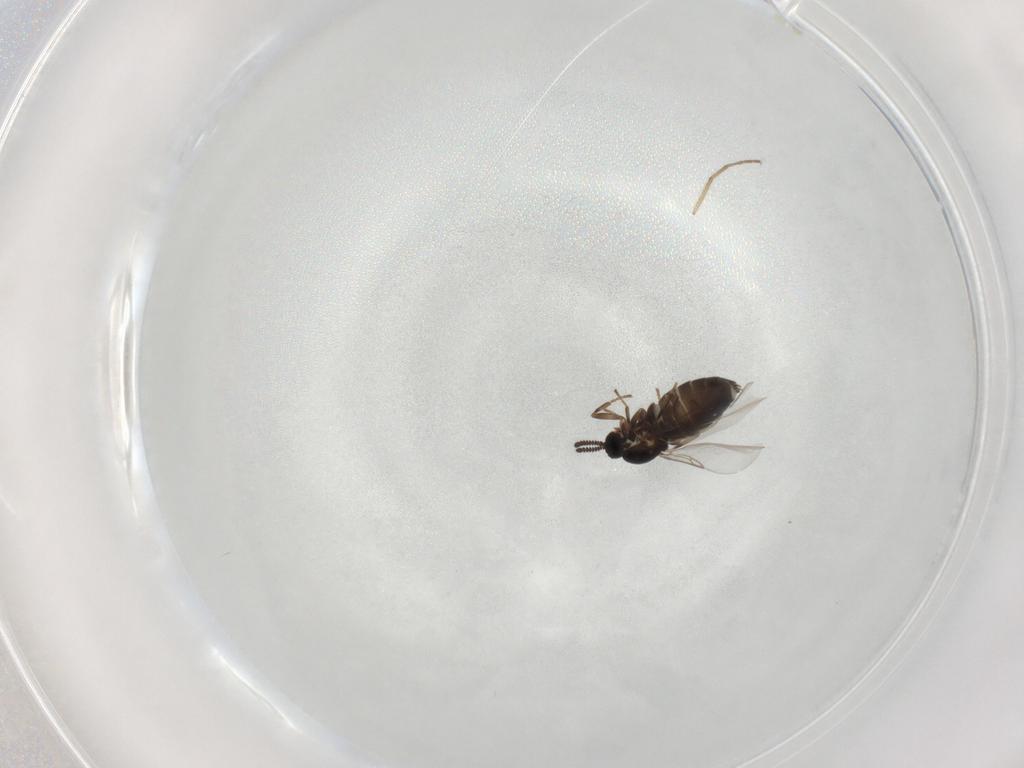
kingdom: Animalia
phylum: Arthropoda
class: Insecta
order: Diptera
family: Scatopsidae
